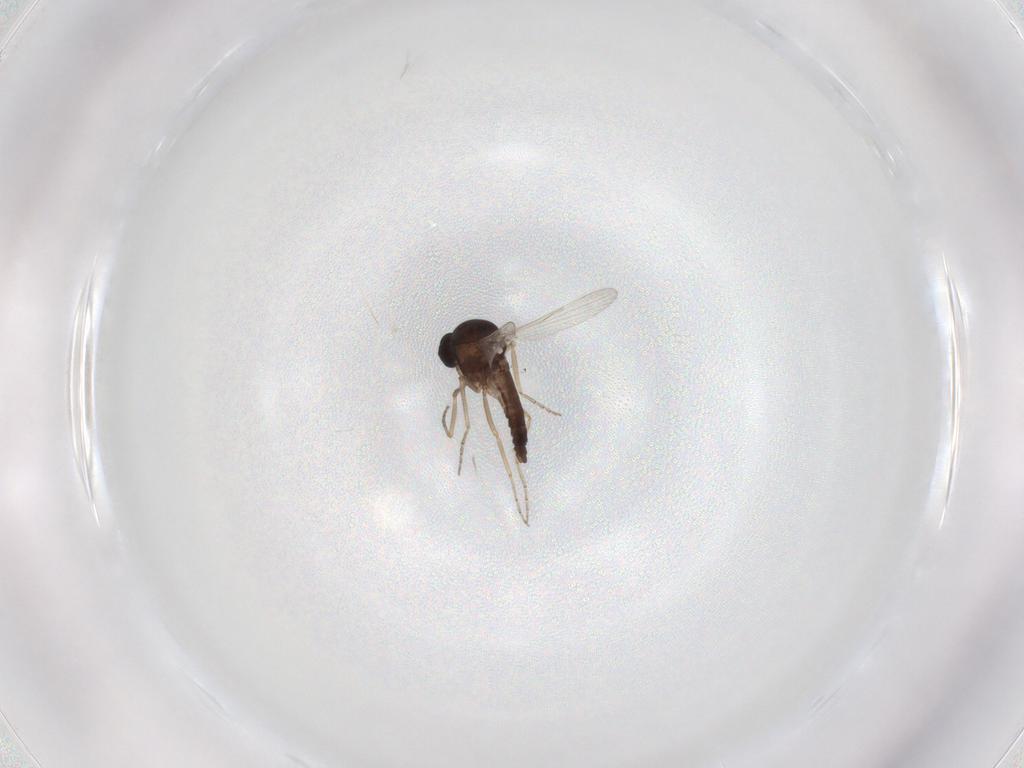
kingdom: Animalia
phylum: Arthropoda
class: Insecta
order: Diptera
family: Ceratopogonidae
